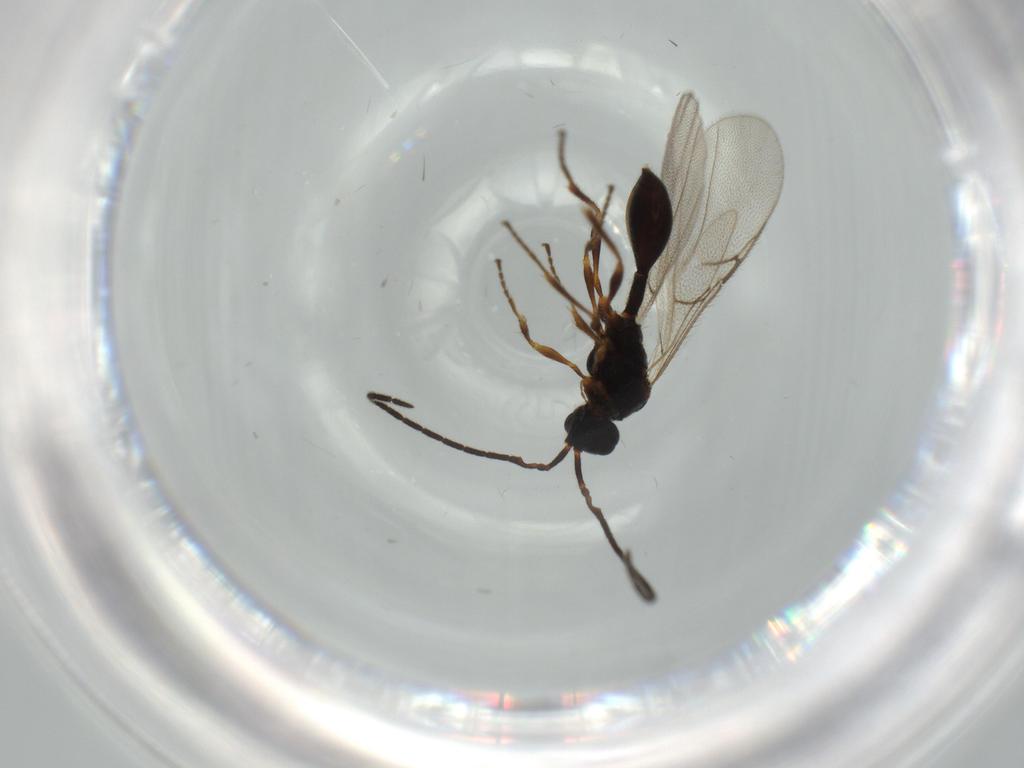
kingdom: Animalia
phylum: Arthropoda
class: Insecta
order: Hymenoptera
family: Diapriidae
